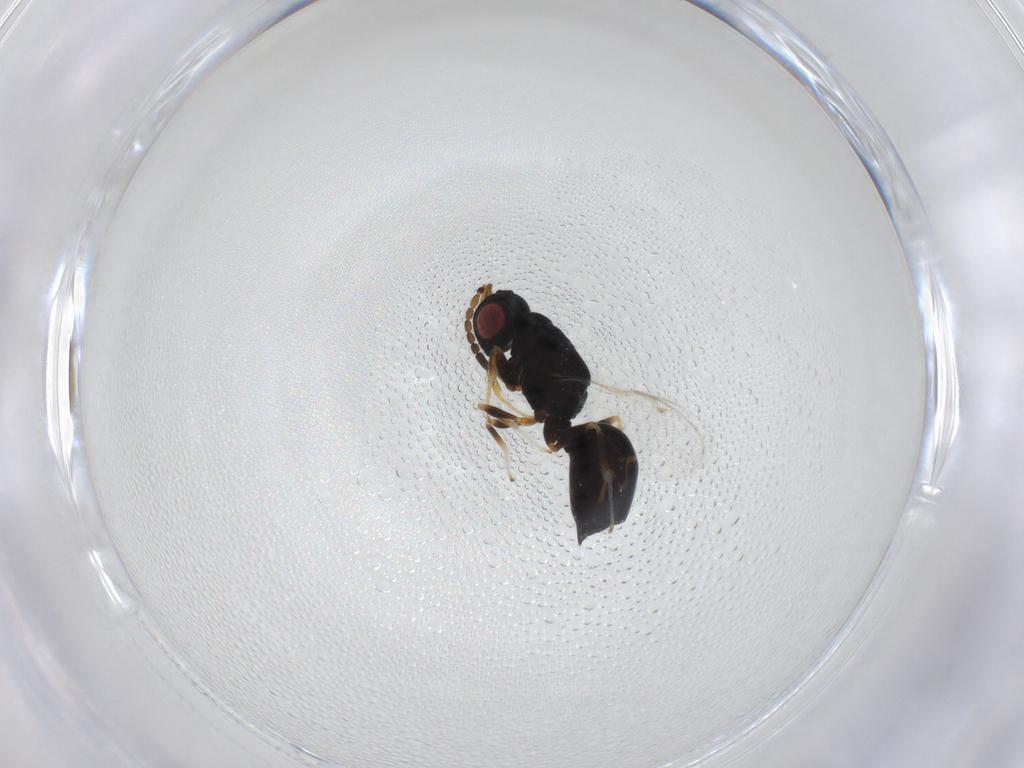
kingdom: Animalia
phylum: Arthropoda
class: Insecta
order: Hymenoptera
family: Eurytomidae
